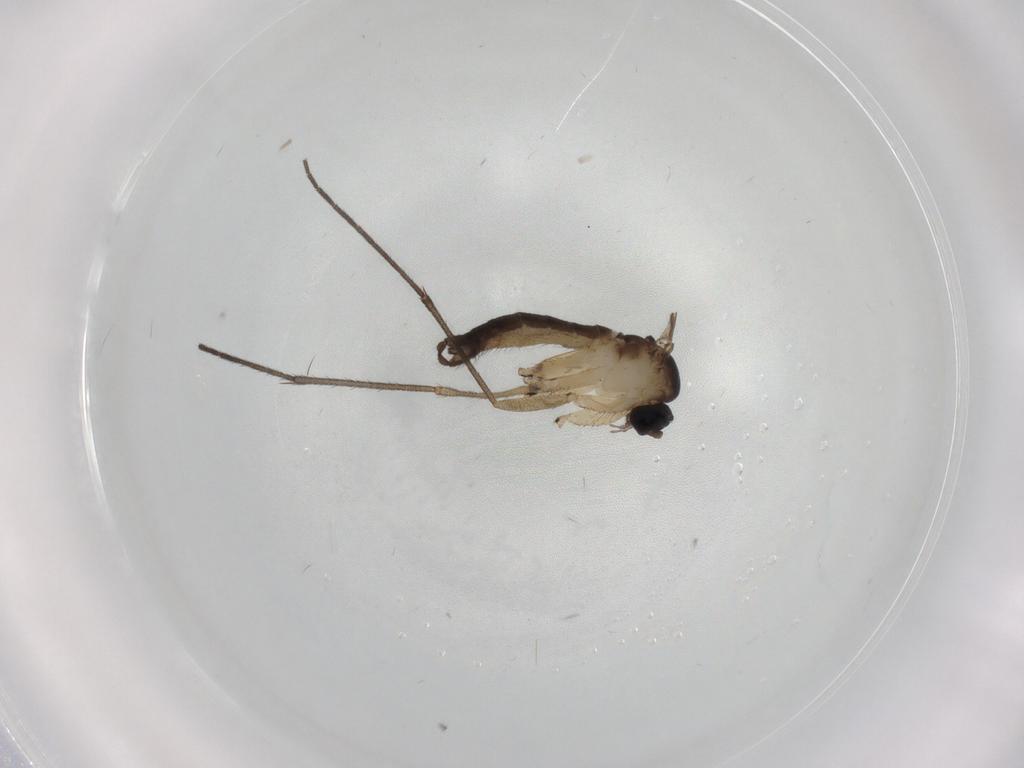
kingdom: Animalia
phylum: Arthropoda
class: Insecta
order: Diptera
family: Sciaridae
